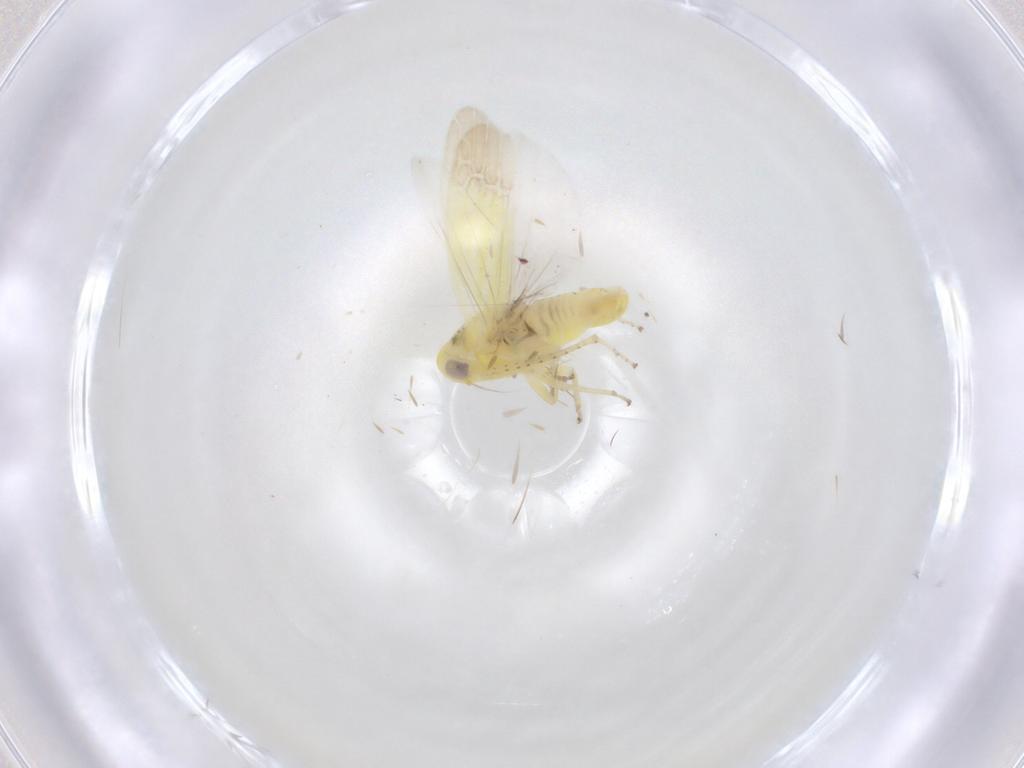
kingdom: Animalia
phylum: Arthropoda
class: Insecta
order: Hemiptera
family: Cicadellidae
